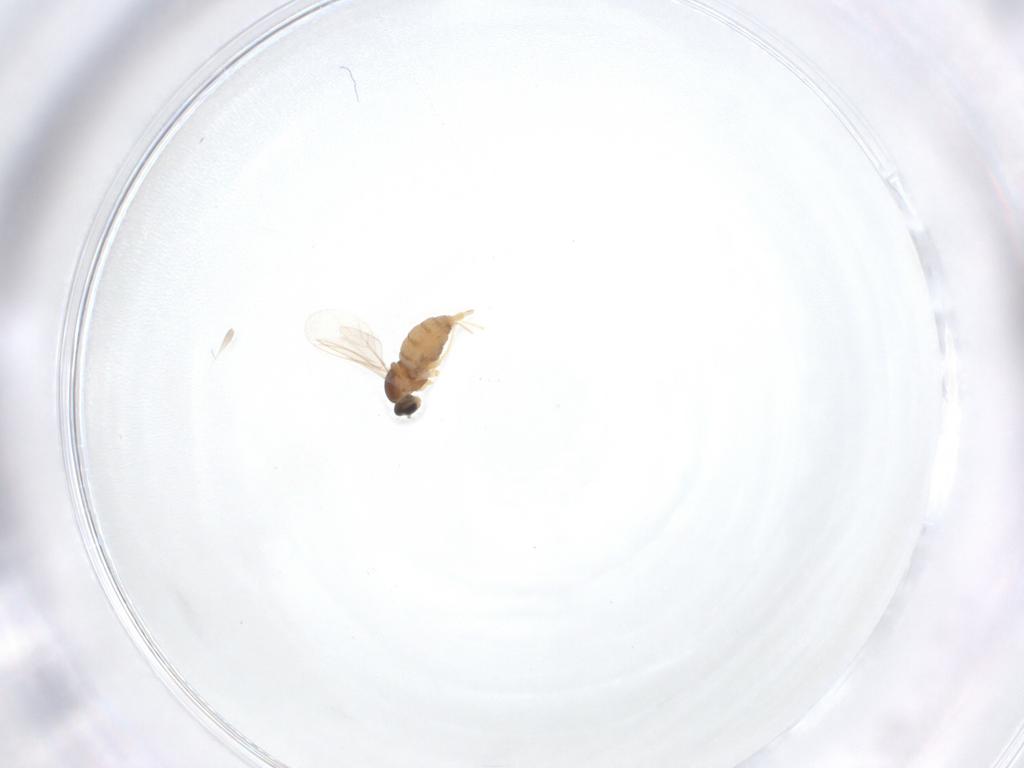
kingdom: Animalia
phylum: Arthropoda
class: Insecta
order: Diptera
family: Cecidomyiidae
